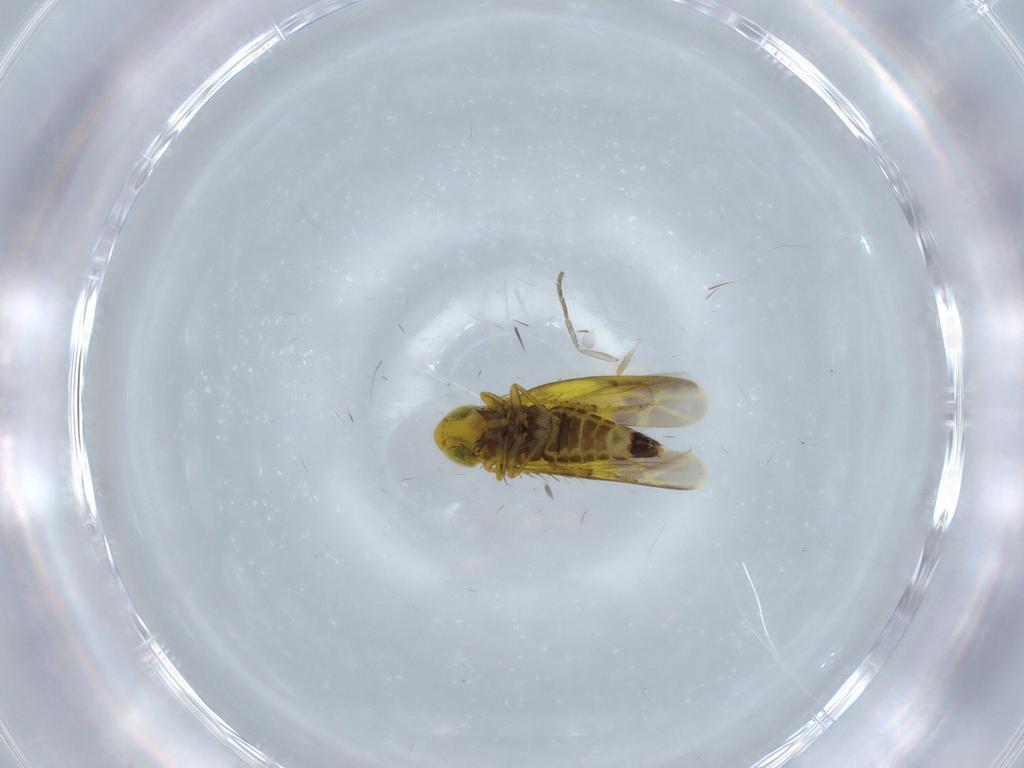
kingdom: Animalia
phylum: Arthropoda
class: Insecta
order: Hemiptera
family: Cicadellidae
